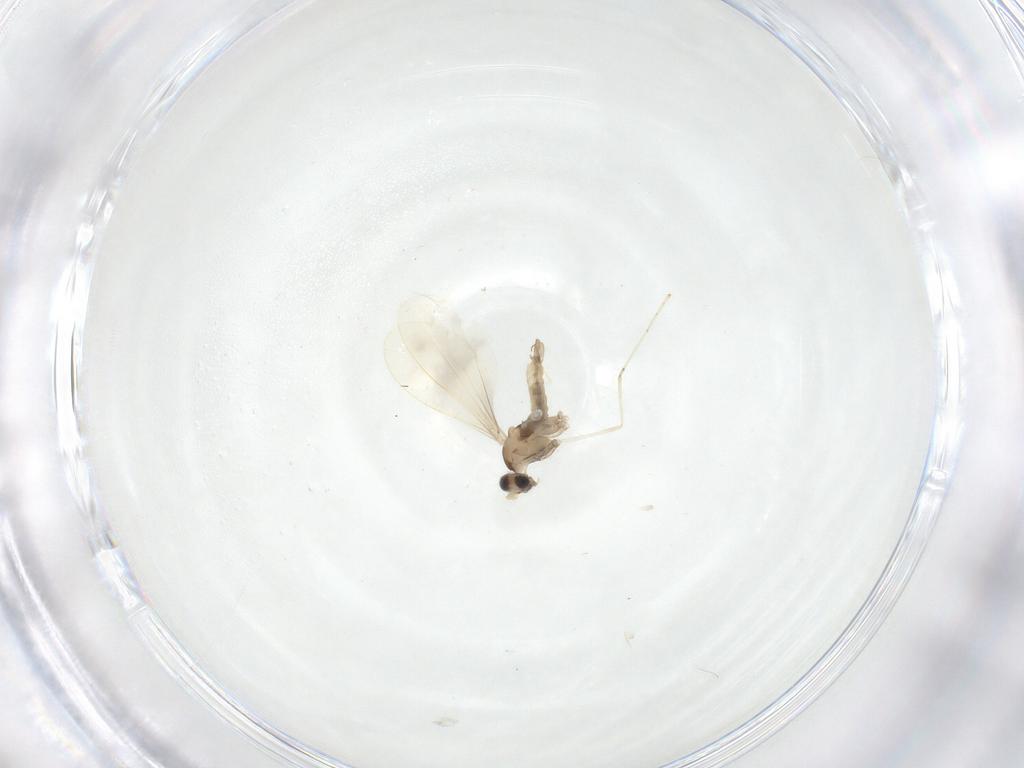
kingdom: Animalia
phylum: Arthropoda
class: Insecta
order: Diptera
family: Cecidomyiidae
